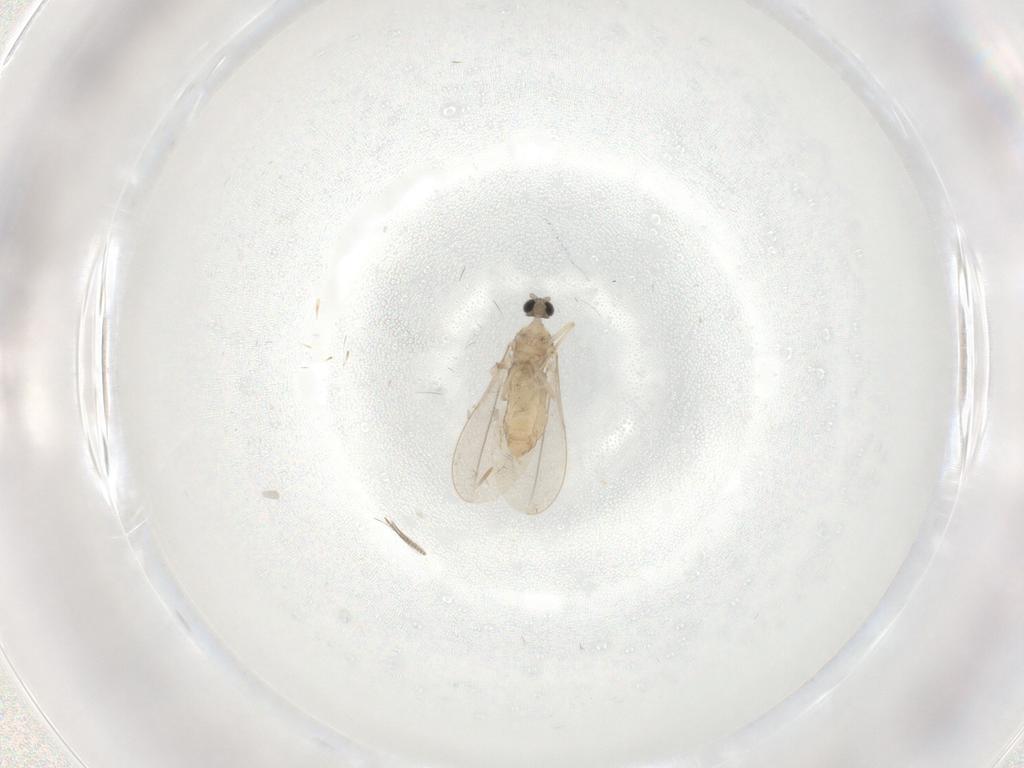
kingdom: Animalia
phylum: Arthropoda
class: Insecta
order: Diptera
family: Cecidomyiidae
